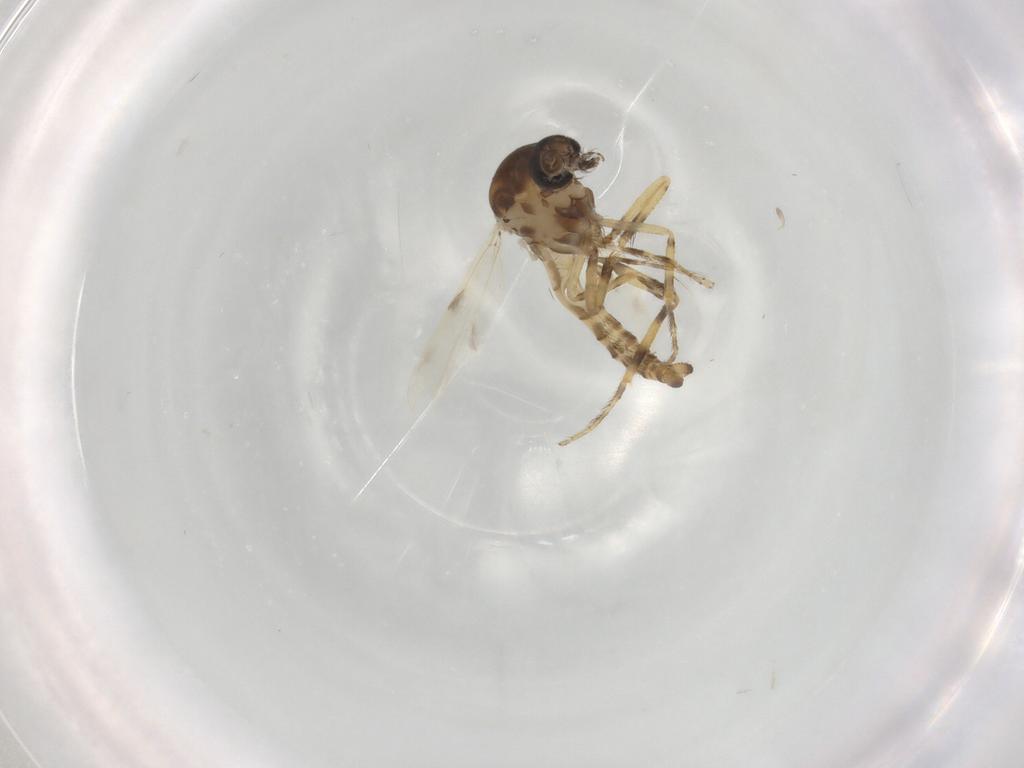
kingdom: Animalia
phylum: Arthropoda
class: Insecta
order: Diptera
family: Ceratopogonidae
